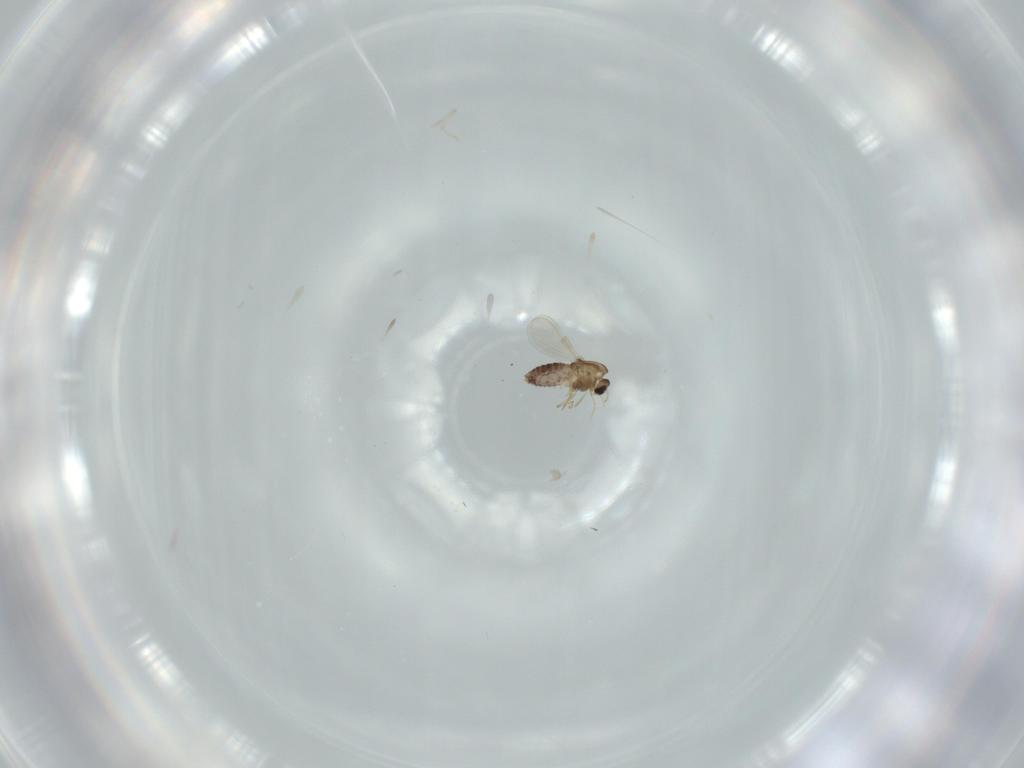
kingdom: Animalia
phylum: Arthropoda
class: Insecta
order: Diptera
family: Chironomidae
